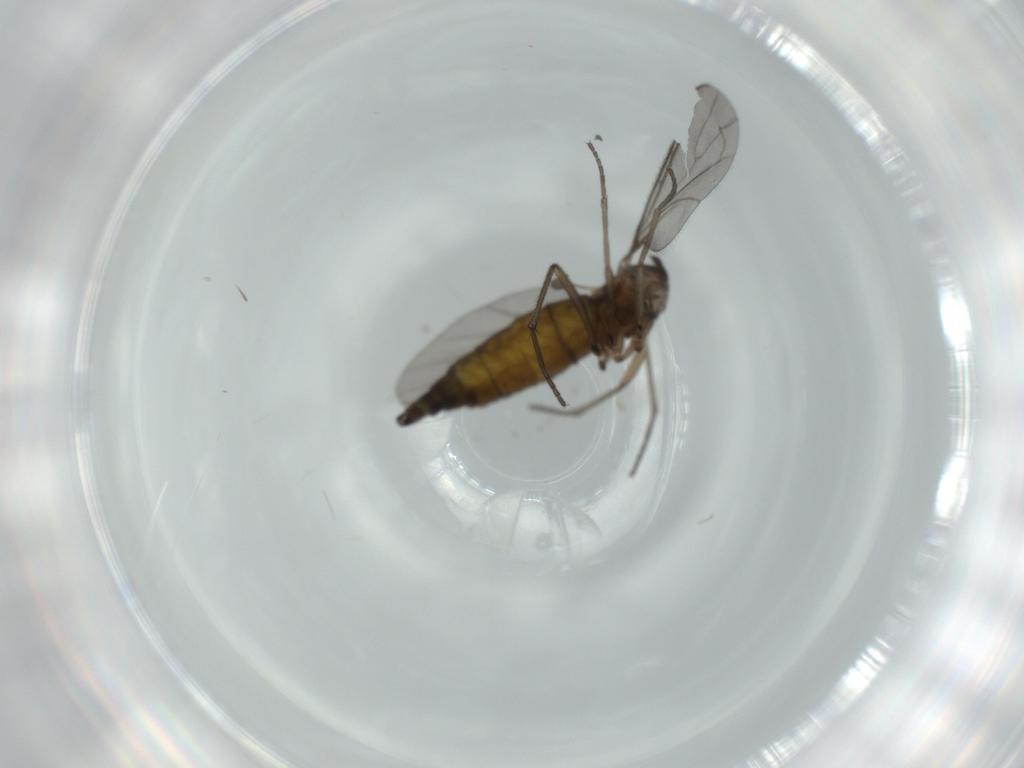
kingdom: Animalia
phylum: Arthropoda
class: Insecta
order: Diptera
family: Sciaridae
